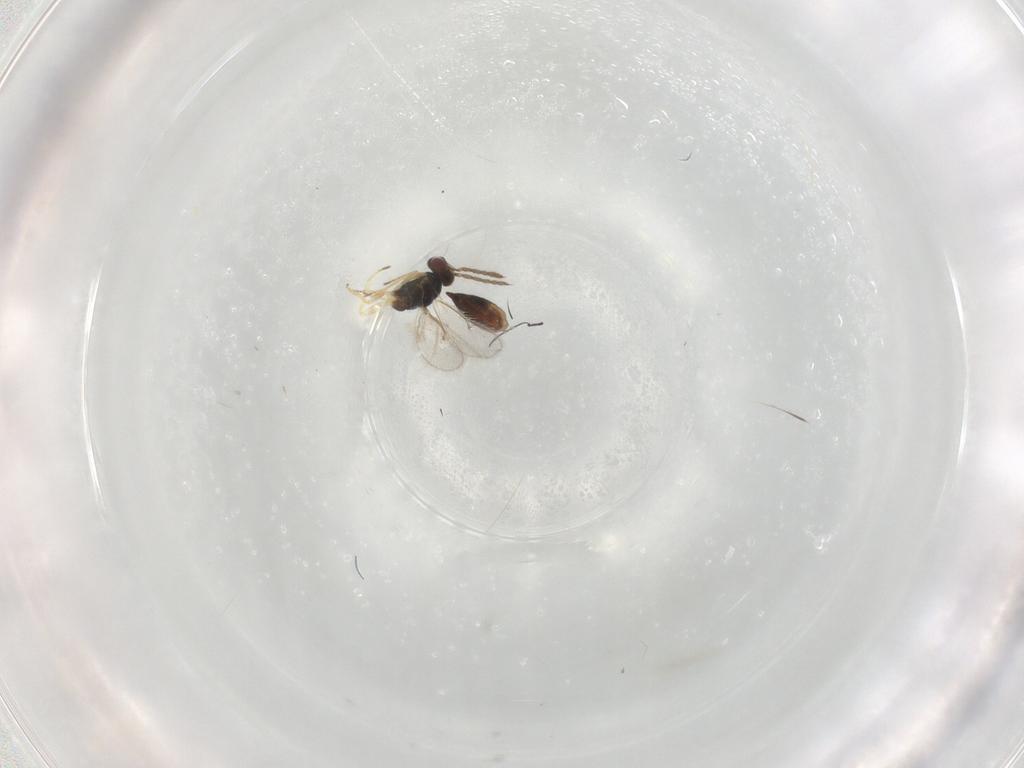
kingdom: Animalia
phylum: Arthropoda
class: Insecta
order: Hymenoptera
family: Eulophidae
